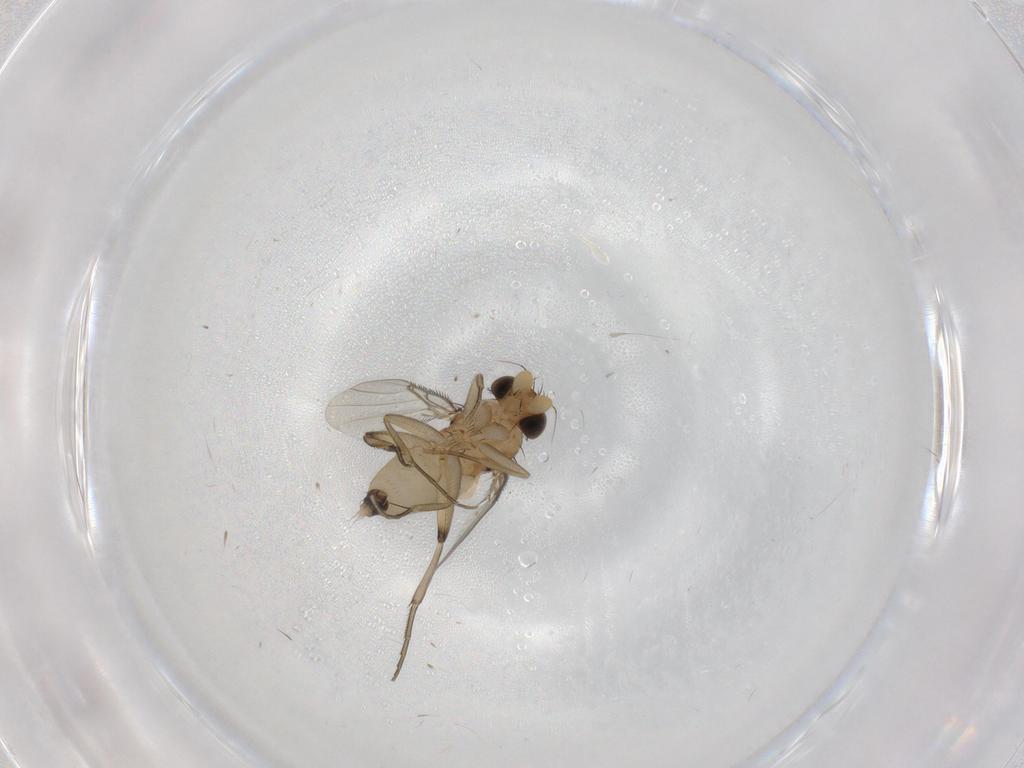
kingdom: Animalia
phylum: Arthropoda
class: Insecta
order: Diptera
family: Phoridae
